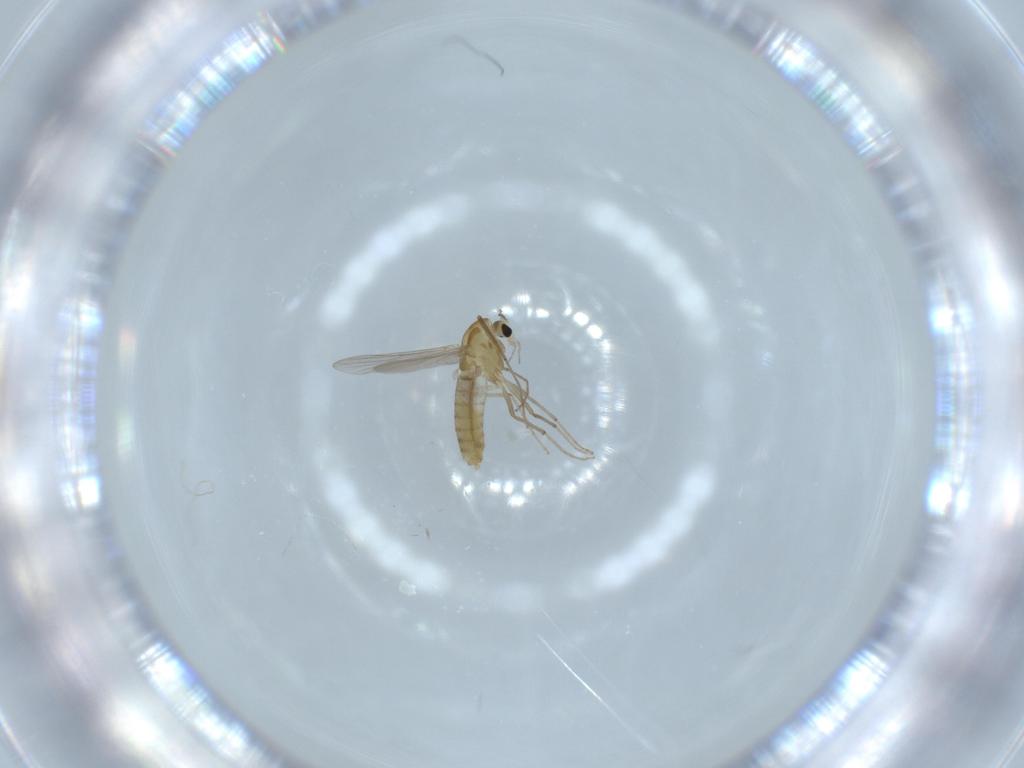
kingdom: Animalia
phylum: Arthropoda
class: Insecta
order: Diptera
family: Chironomidae
